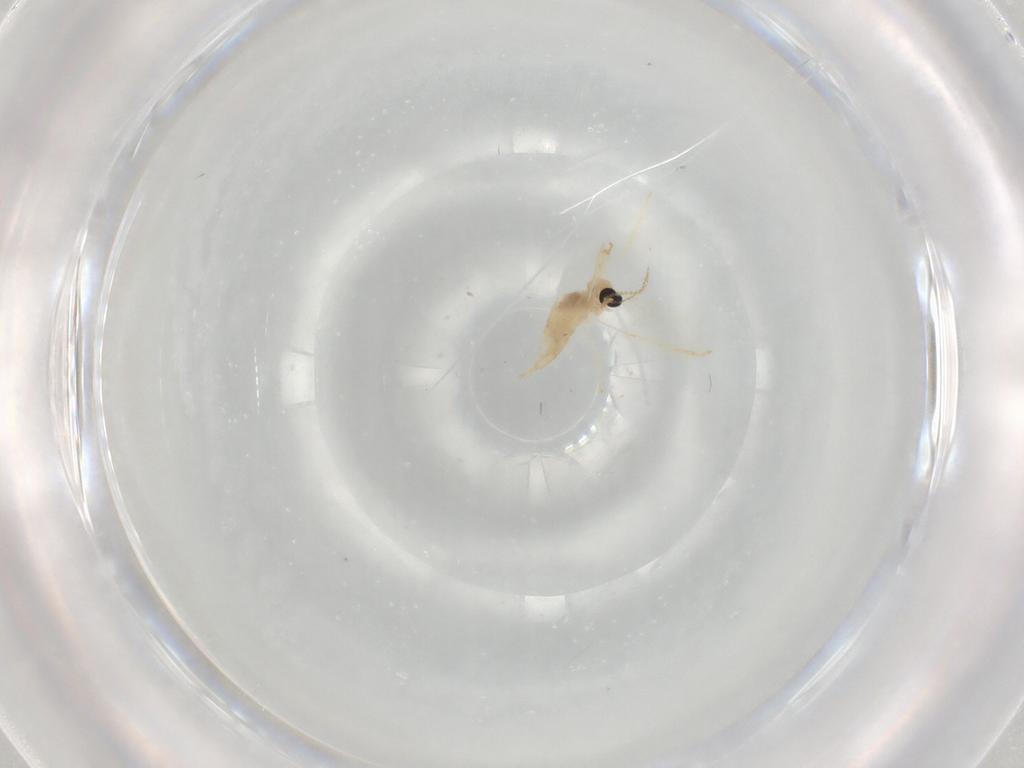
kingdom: Animalia
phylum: Arthropoda
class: Insecta
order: Diptera
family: Cecidomyiidae
